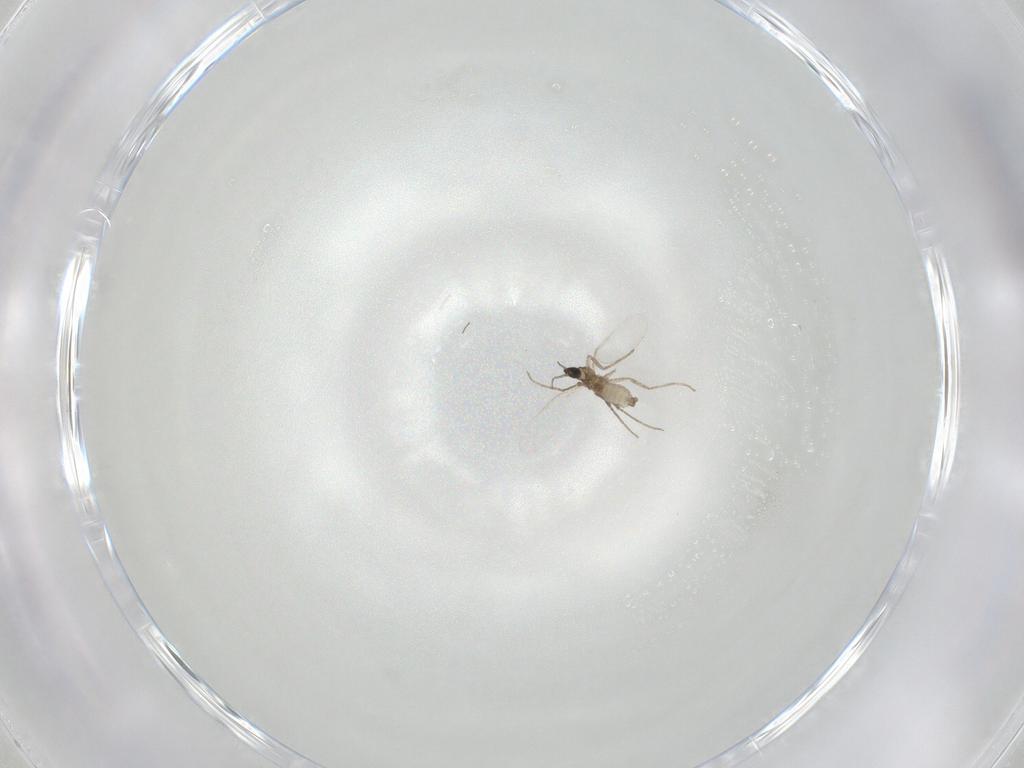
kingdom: Animalia
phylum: Arthropoda
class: Insecta
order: Diptera
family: Cecidomyiidae
